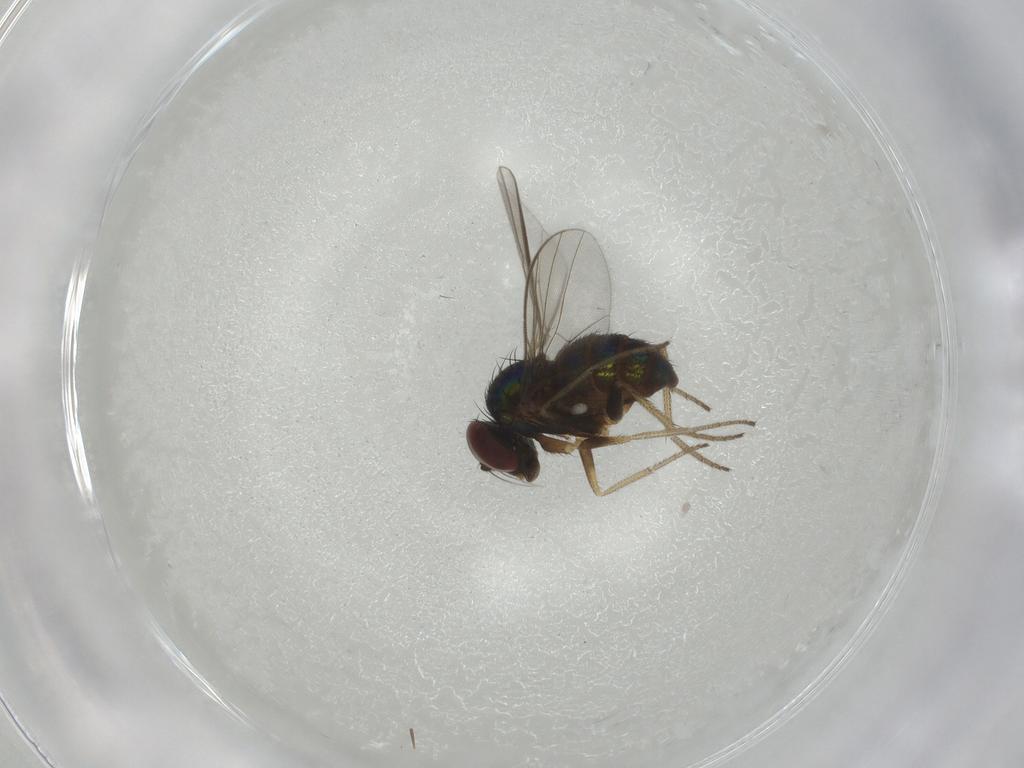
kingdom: Animalia
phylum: Arthropoda
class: Insecta
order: Diptera
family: Dolichopodidae
